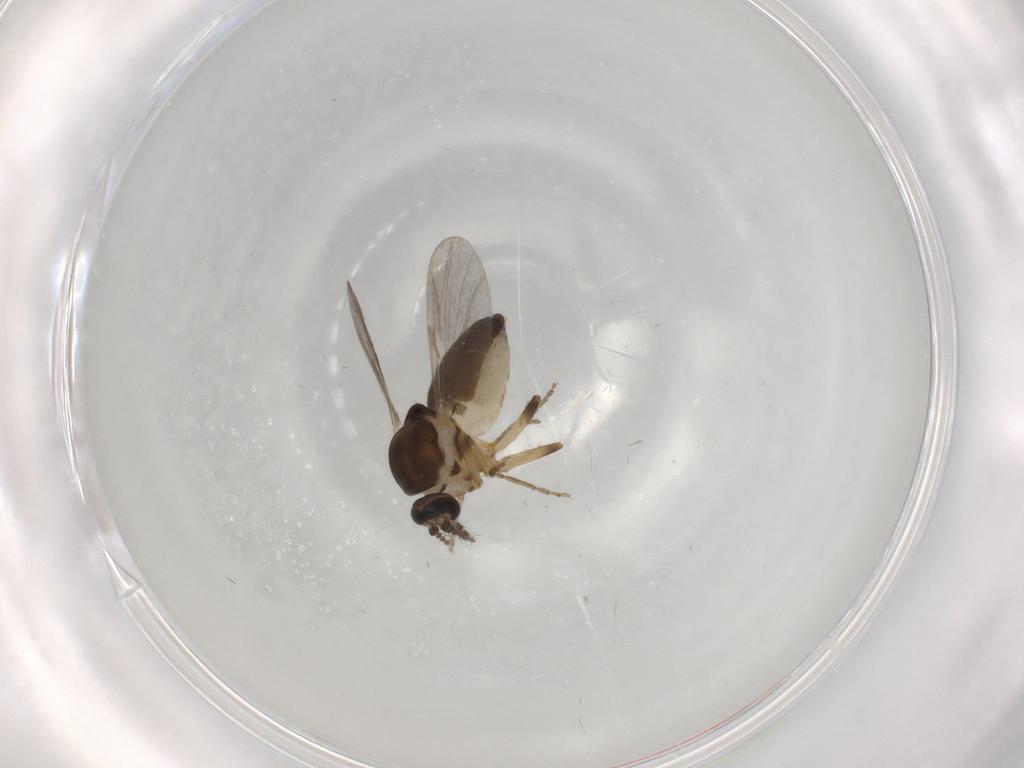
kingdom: Animalia
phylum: Arthropoda
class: Insecta
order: Diptera
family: Ceratopogonidae
